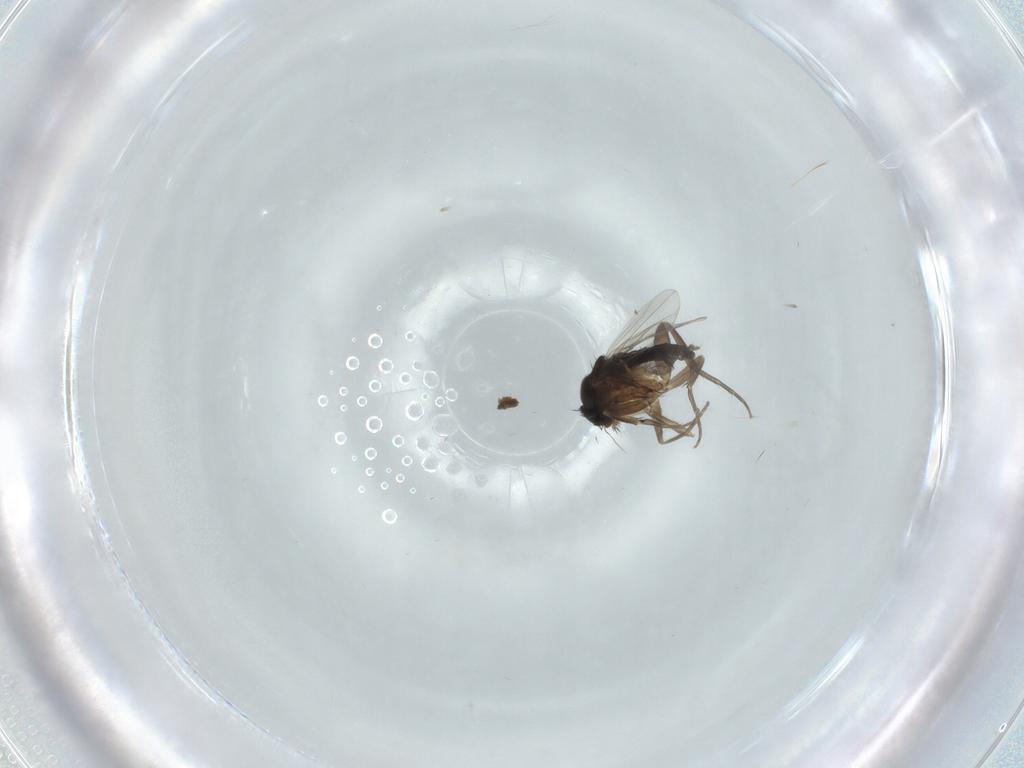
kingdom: Animalia
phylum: Arthropoda
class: Insecta
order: Diptera
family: Phoridae
